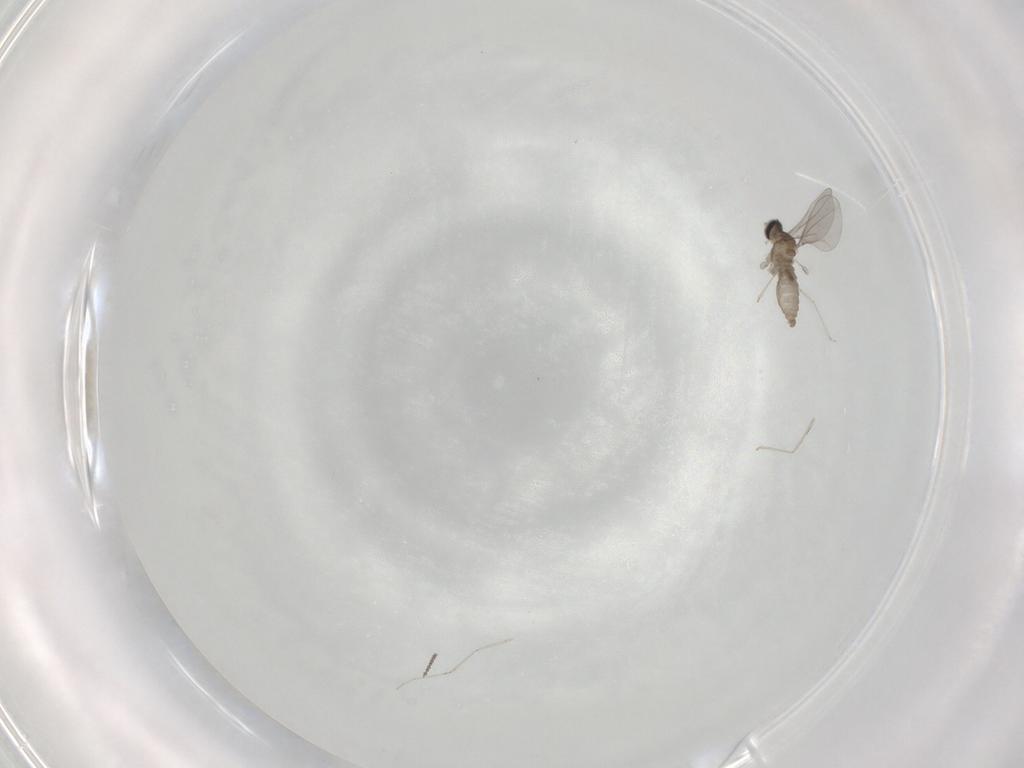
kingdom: Animalia
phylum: Arthropoda
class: Insecta
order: Diptera
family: Cecidomyiidae
